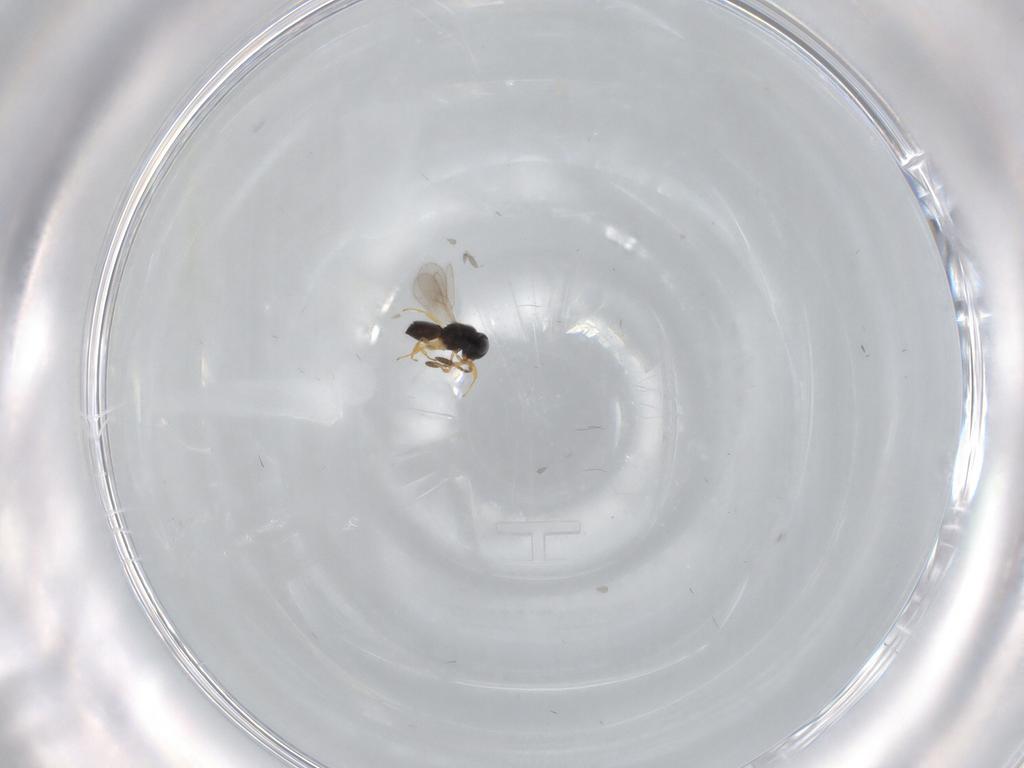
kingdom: Animalia
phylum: Arthropoda
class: Insecta
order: Hymenoptera
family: Scelionidae
